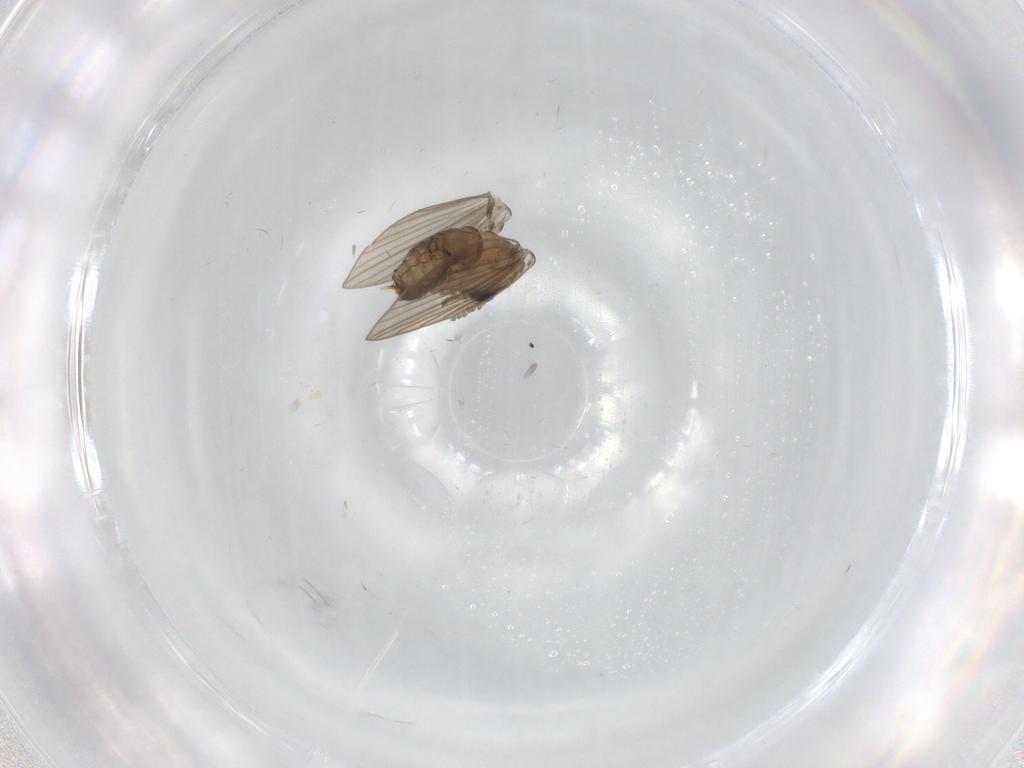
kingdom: Animalia
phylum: Arthropoda
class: Insecta
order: Diptera
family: Psychodidae
